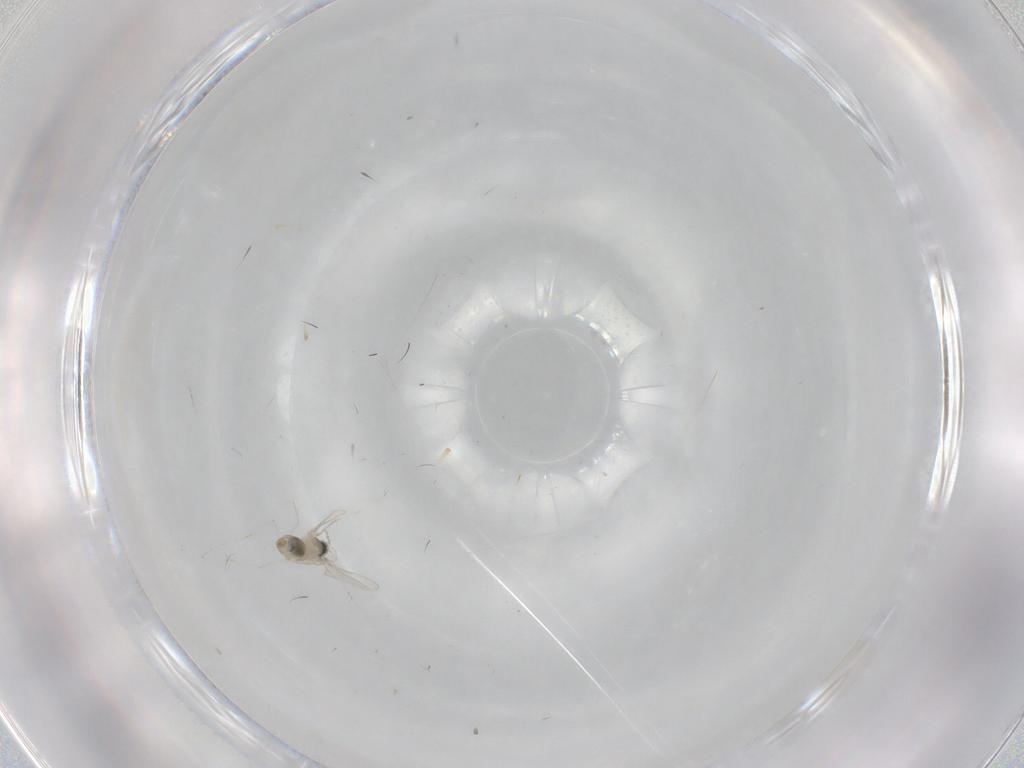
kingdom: Animalia
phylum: Arthropoda
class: Insecta
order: Diptera
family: Cecidomyiidae
